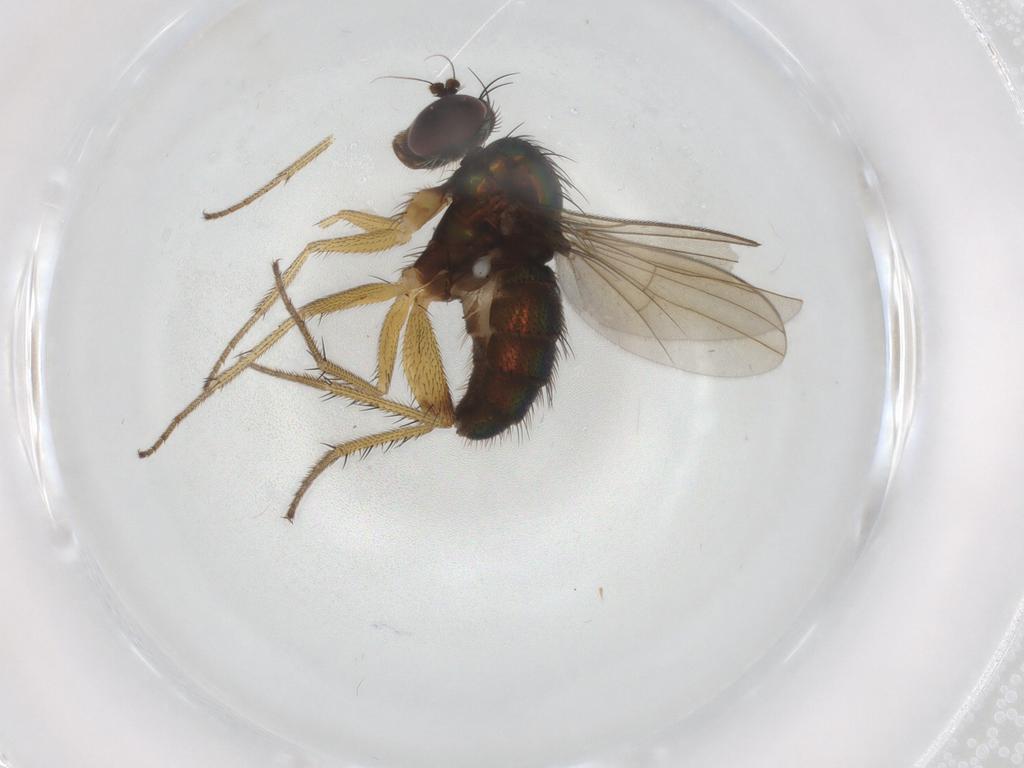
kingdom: Animalia
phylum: Arthropoda
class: Insecta
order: Diptera
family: Dolichopodidae
